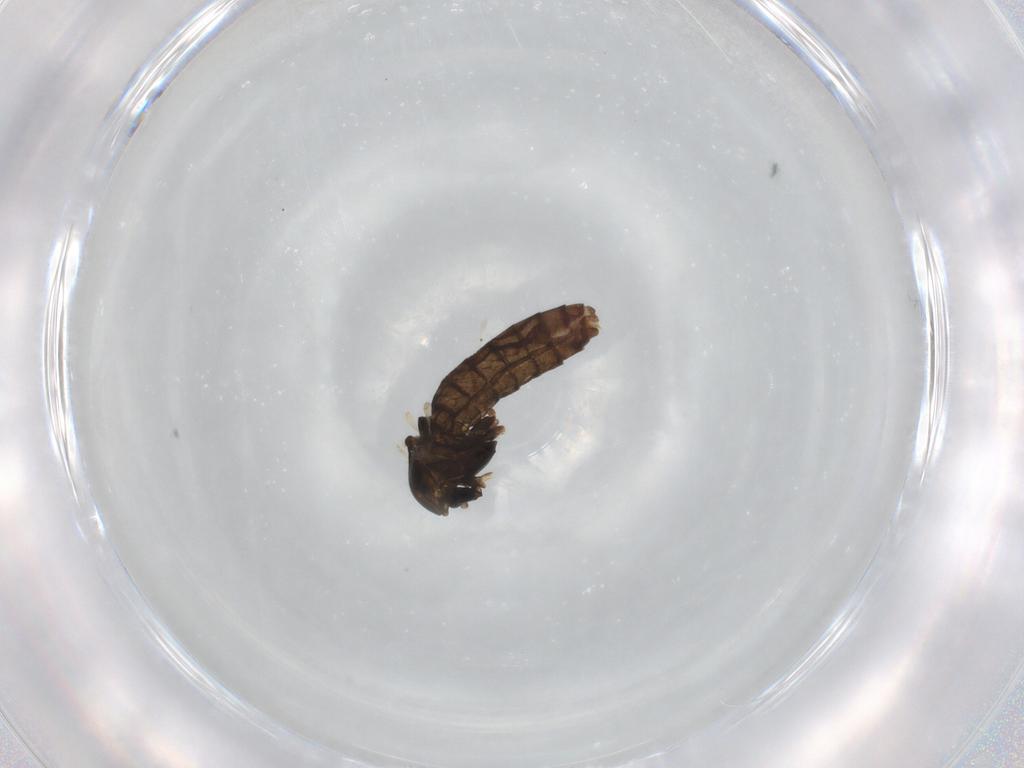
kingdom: Animalia
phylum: Arthropoda
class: Insecta
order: Diptera
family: Chironomidae
